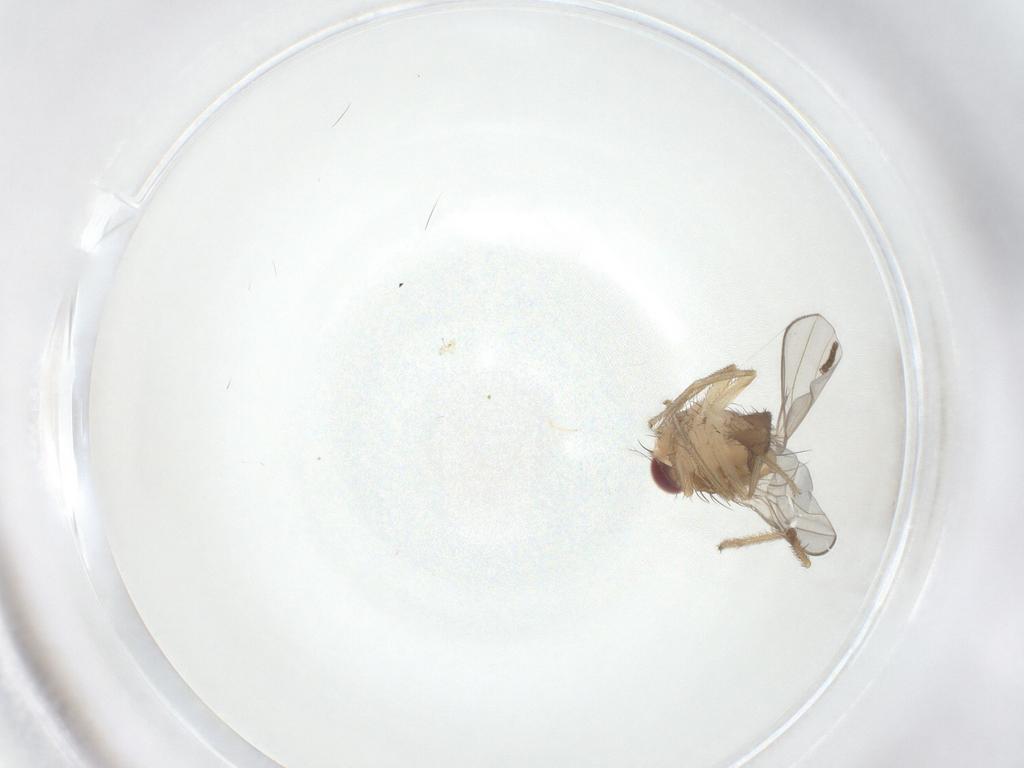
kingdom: Animalia
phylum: Arthropoda
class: Insecta
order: Diptera
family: Drosophilidae
